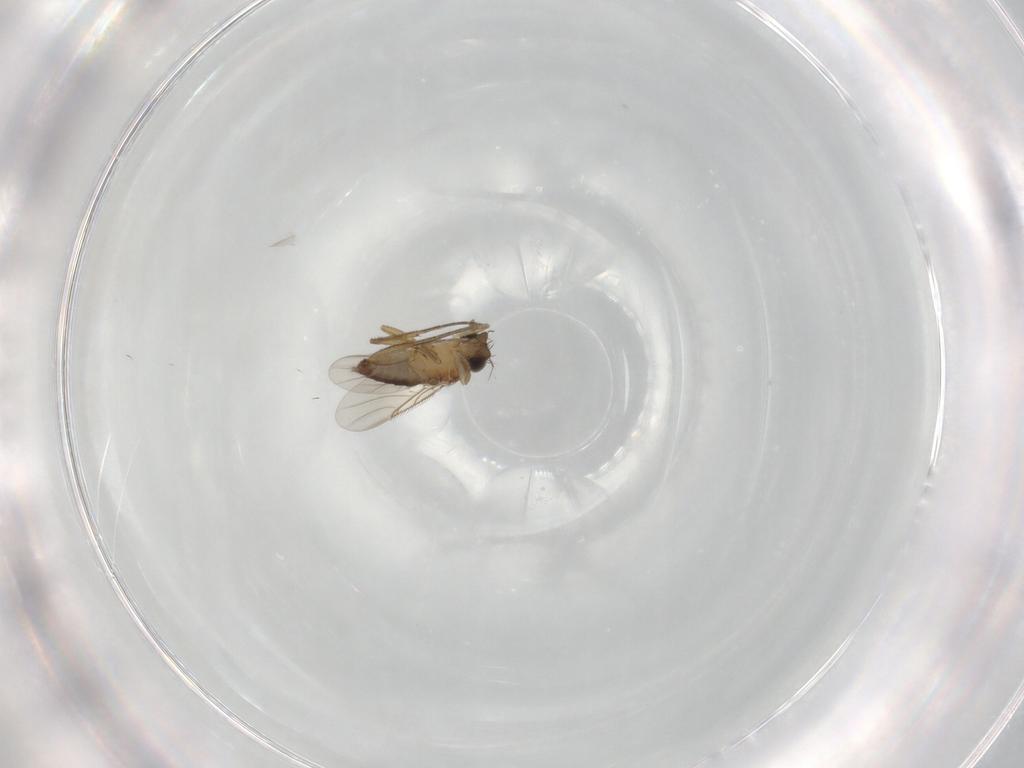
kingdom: Animalia
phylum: Arthropoda
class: Insecta
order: Diptera
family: Phoridae
